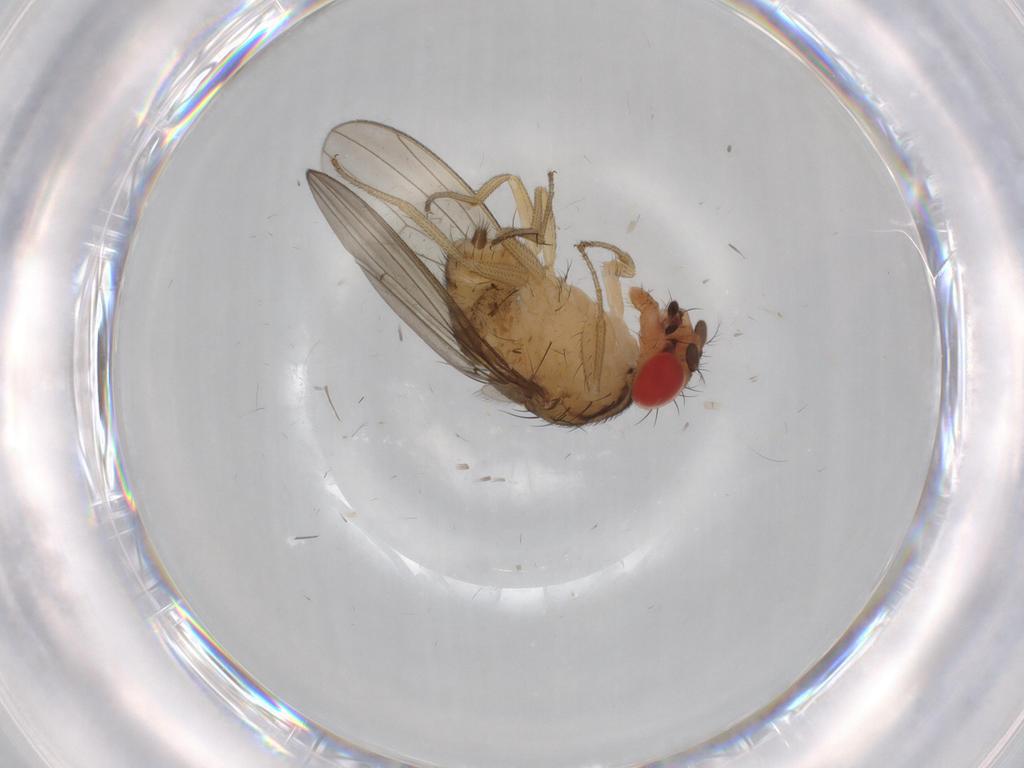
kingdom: Animalia
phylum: Arthropoda
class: Insecta
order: Diptera
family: Drosophilidae
